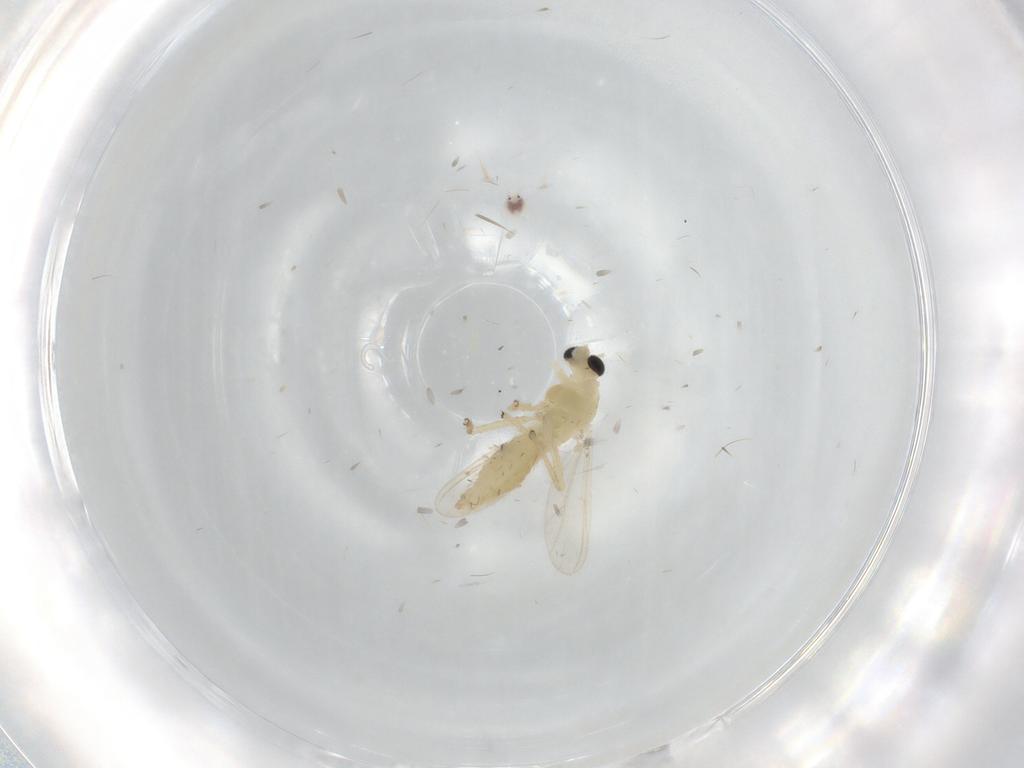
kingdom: Animalia
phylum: Arthropoda
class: Insecta
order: Diptera
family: Chironomidae
